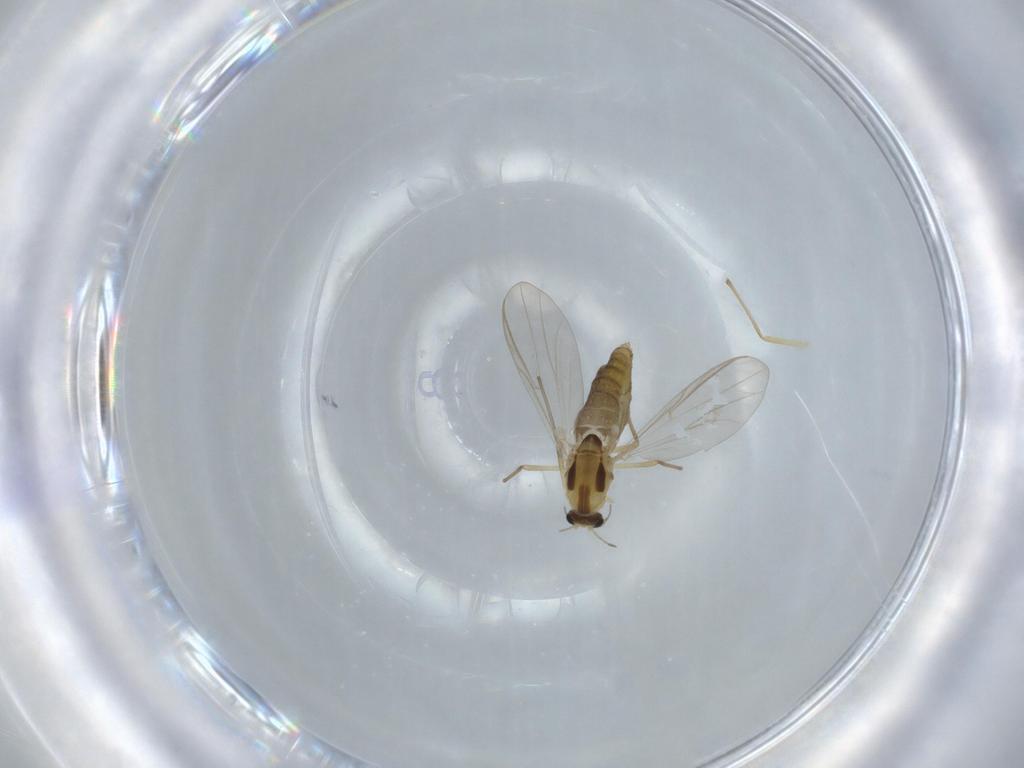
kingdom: Animalia
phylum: Arthropoda
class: Insecta
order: Diptera
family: Chironomidae
